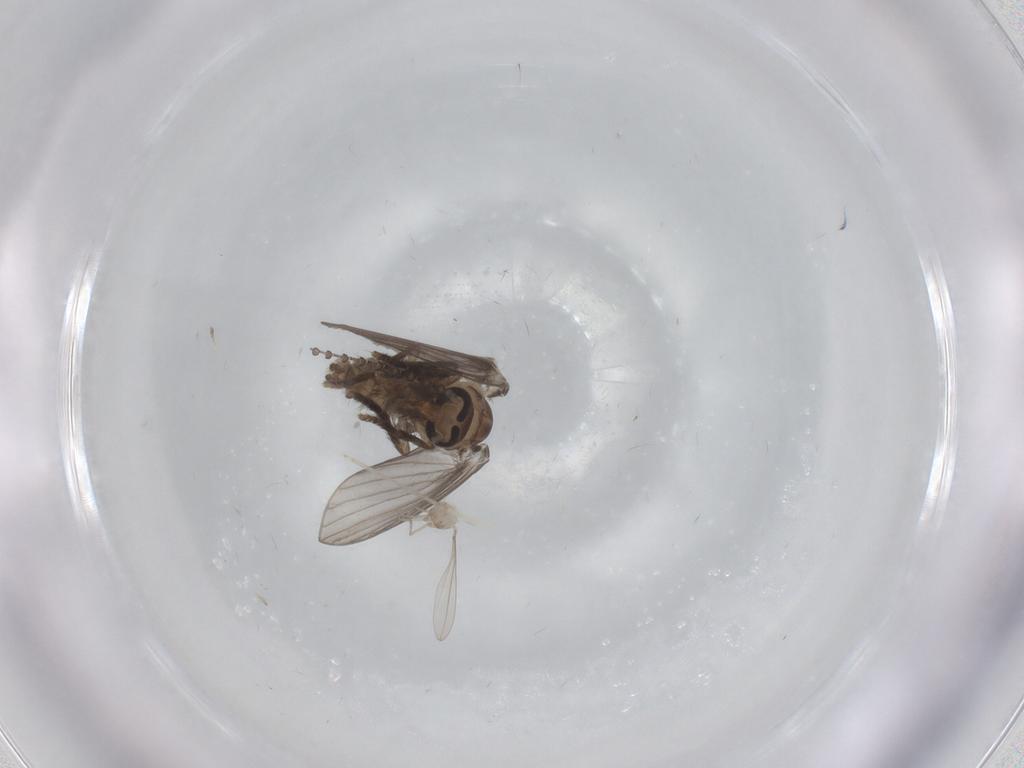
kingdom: Animalia
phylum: Arthropoda
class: Insecta
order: Diptera
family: Cecidomyiidae
